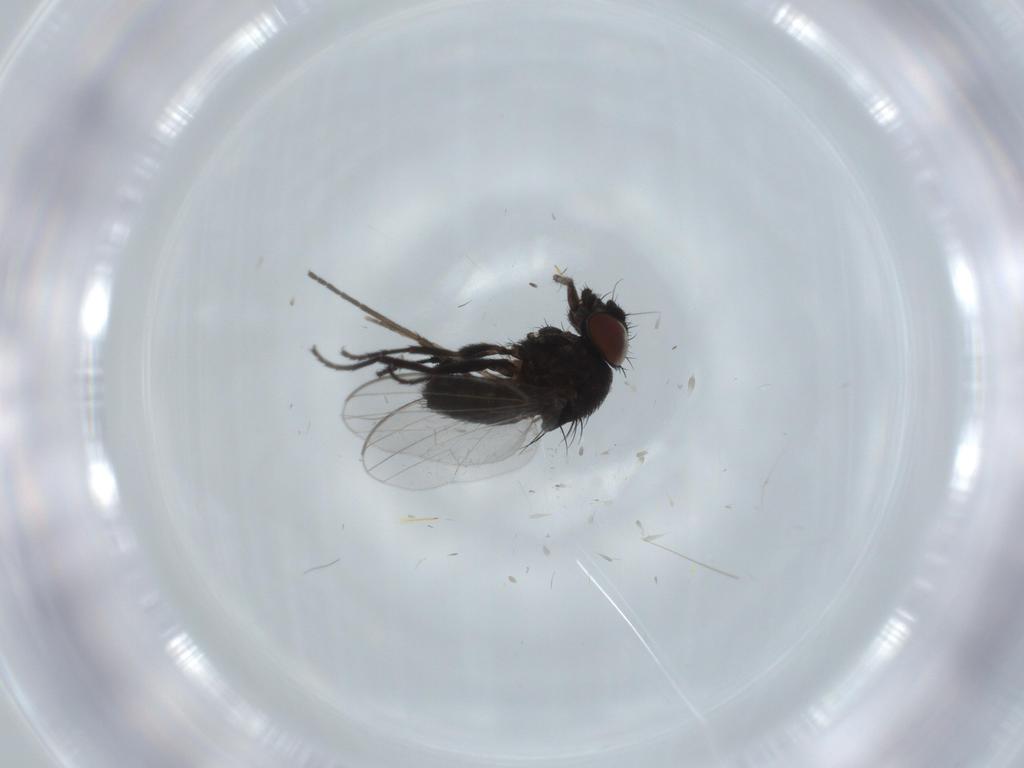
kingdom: Animalia
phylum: Arthropoda
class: Insecta
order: Diptera
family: Milichiidae
